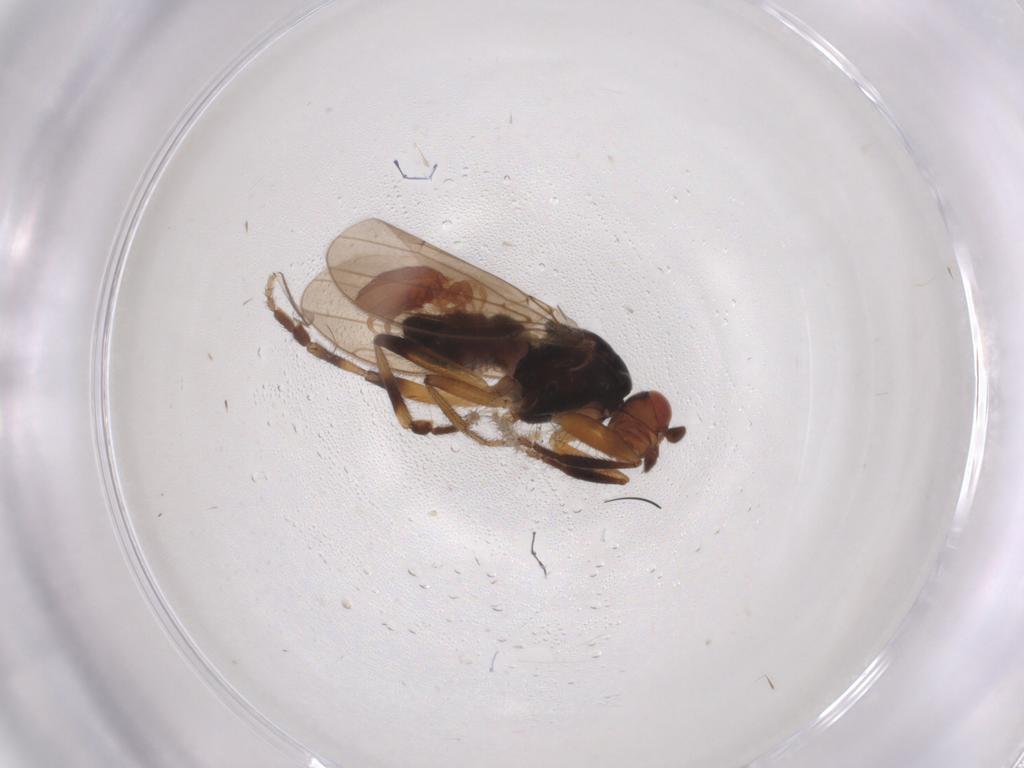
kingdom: Animalia
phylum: Arthropoda
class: Insecta
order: Diptera
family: Sphaeroceridae
